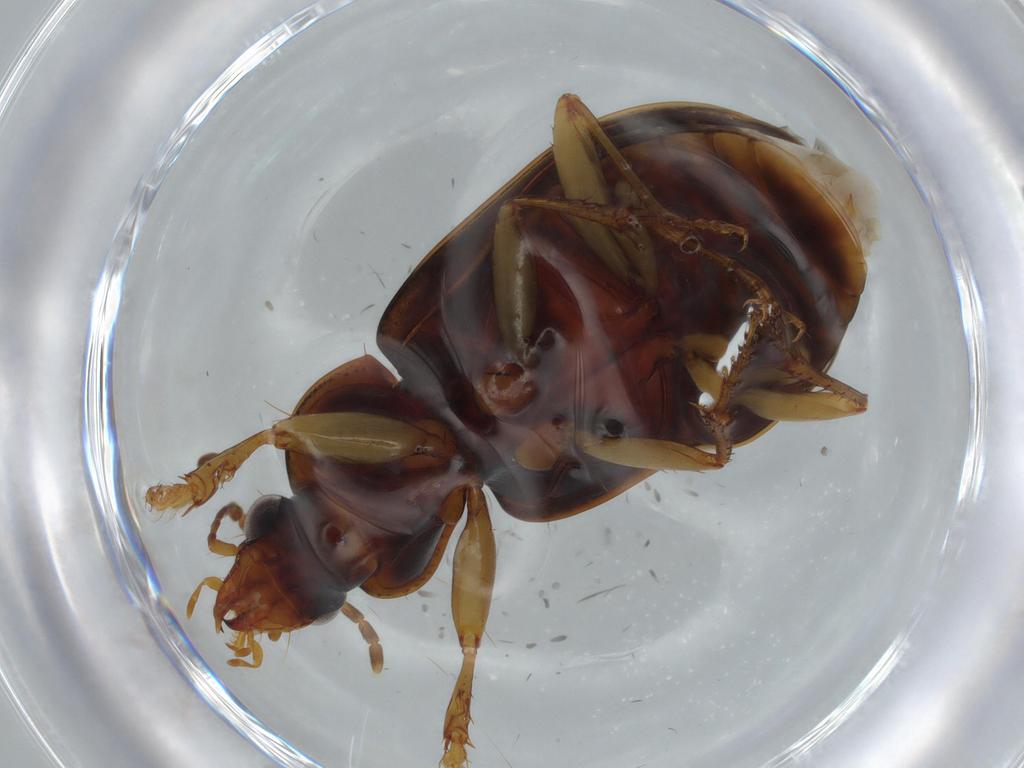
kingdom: Animalia
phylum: Arthropoda
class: Insecta
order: Coleoptera
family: Carabidae
